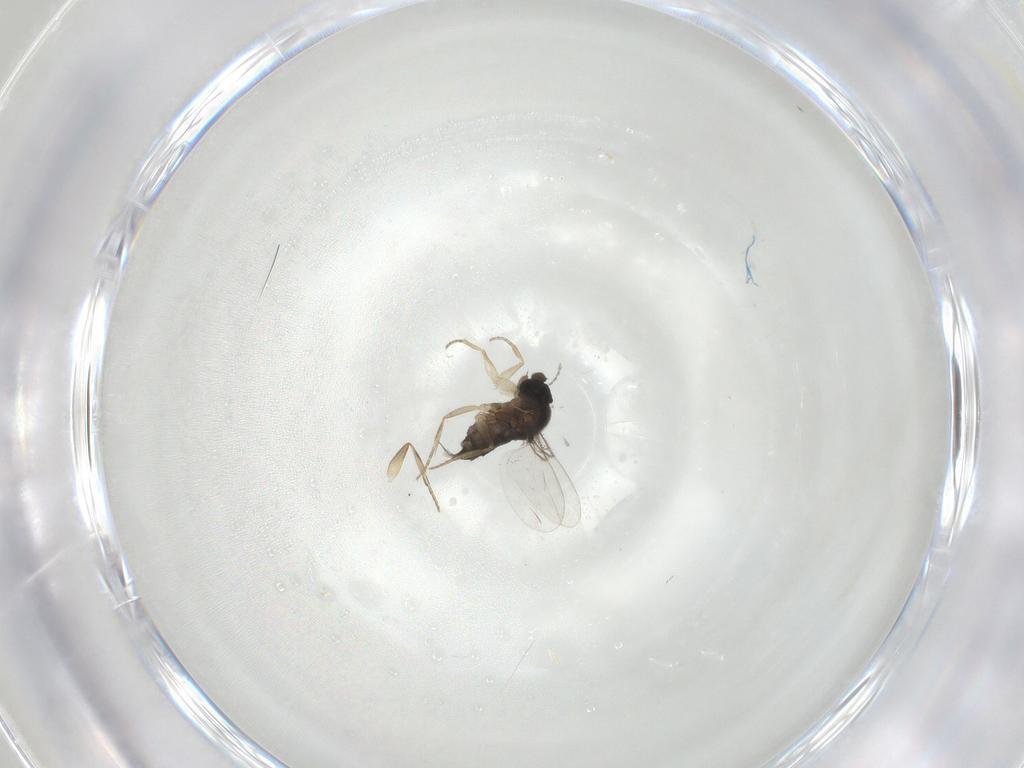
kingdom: Animalia
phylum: Arthropoda
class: Insecta
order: Diptera
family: Phoridae
